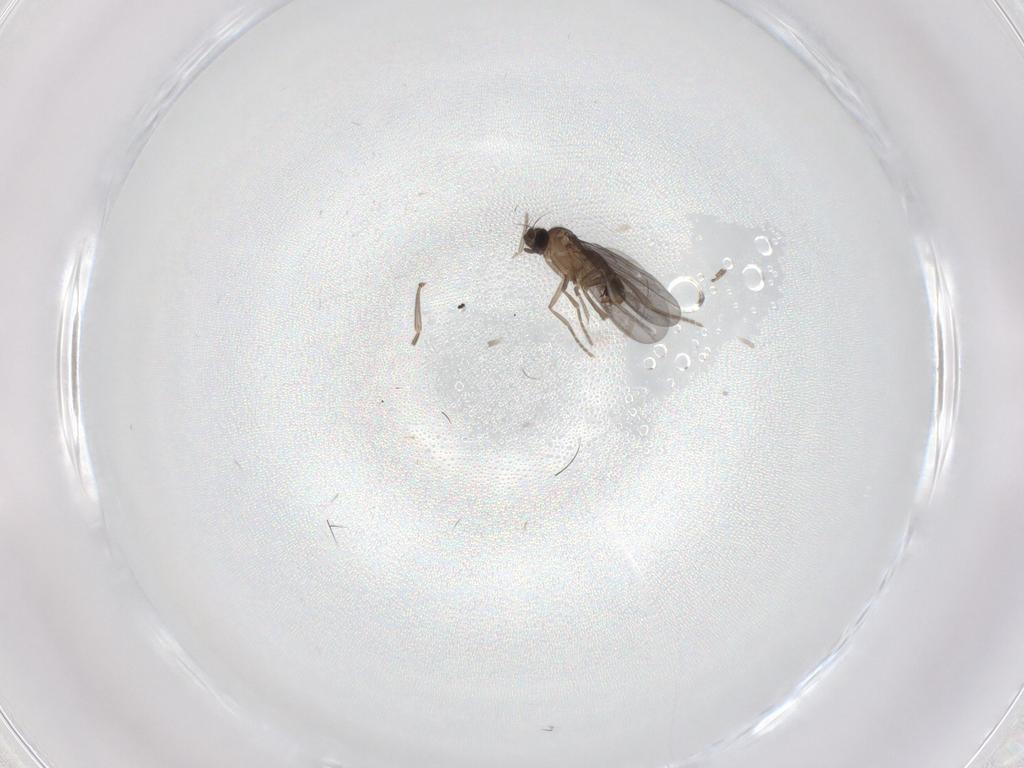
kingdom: Animalia
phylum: Arthropoda
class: Insecta
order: Diptera
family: Phoridae
